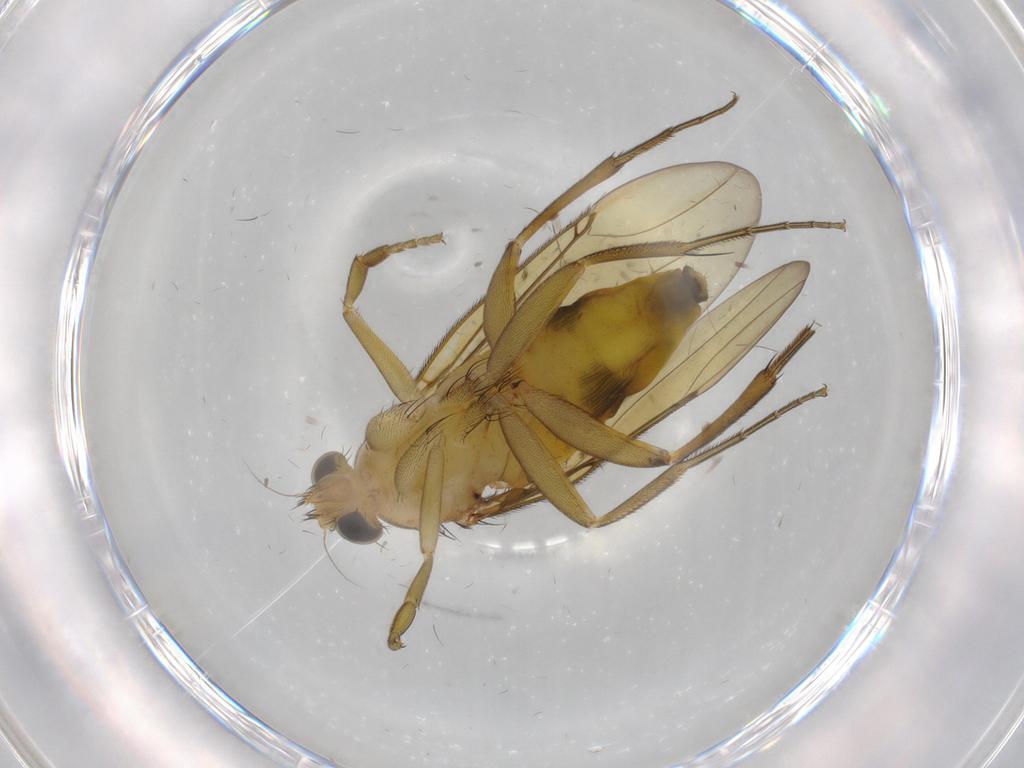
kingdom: Animalia
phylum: Arthropoda
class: Insecta
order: Diptera
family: Phoridae
